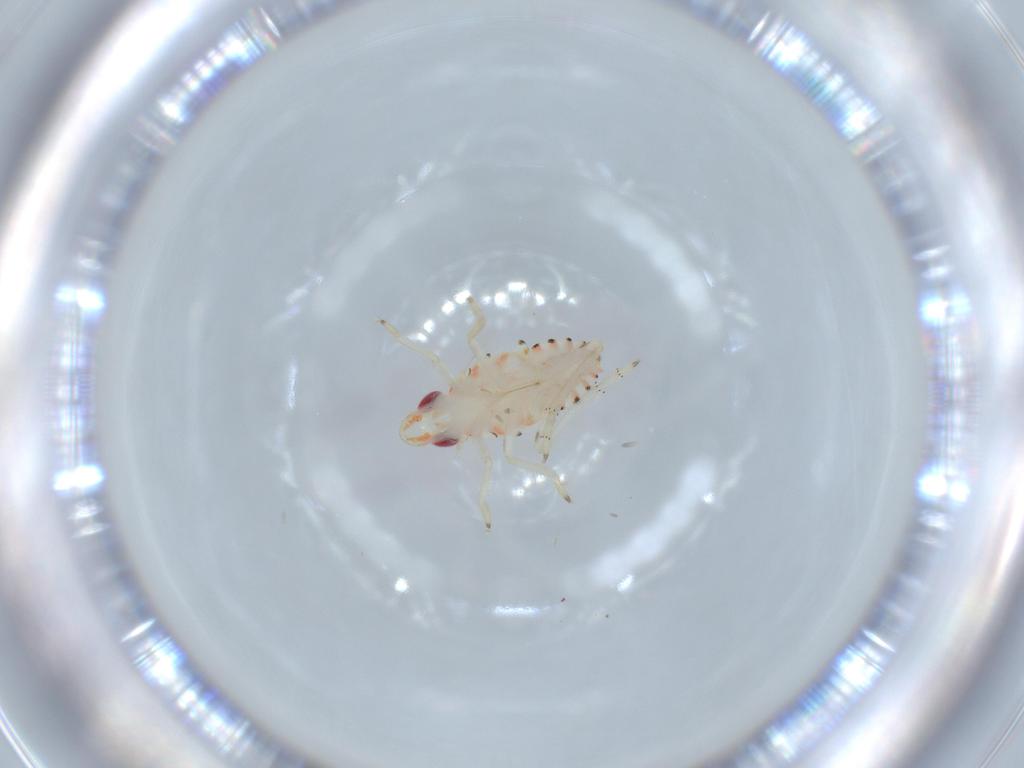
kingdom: Animalia
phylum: Arthropoda
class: Insecta
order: Hemiptera
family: Tropiduchidae
